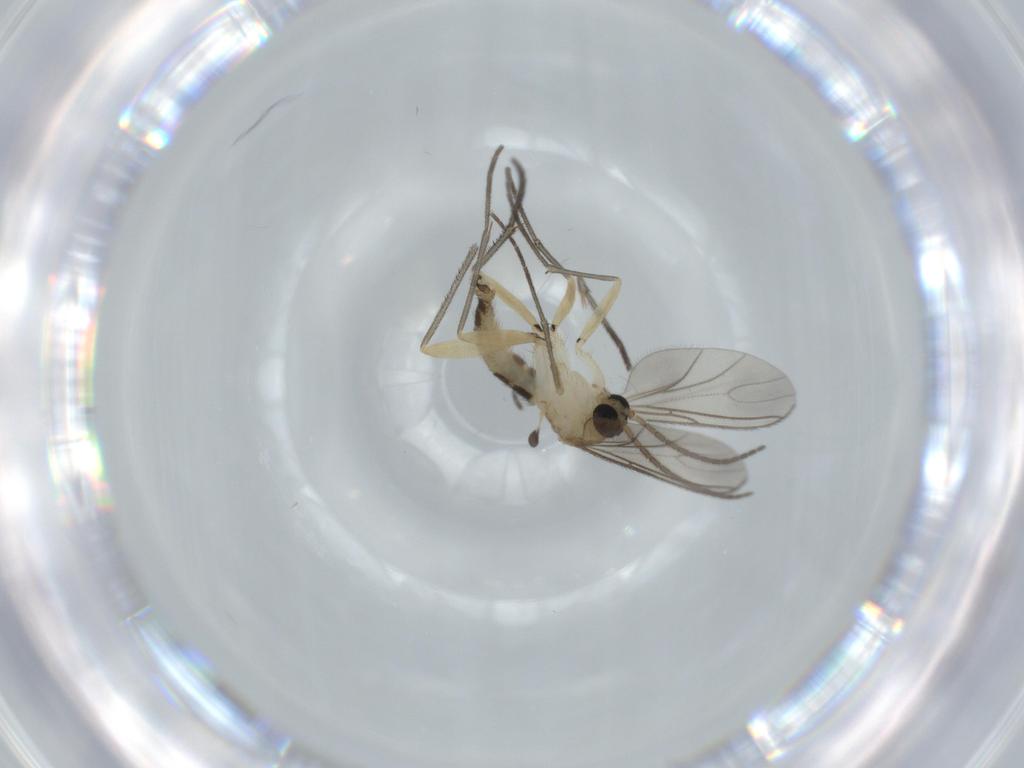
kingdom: Animalia
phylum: Arthropoda
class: Insecta
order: Diptera
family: Sciaridae
